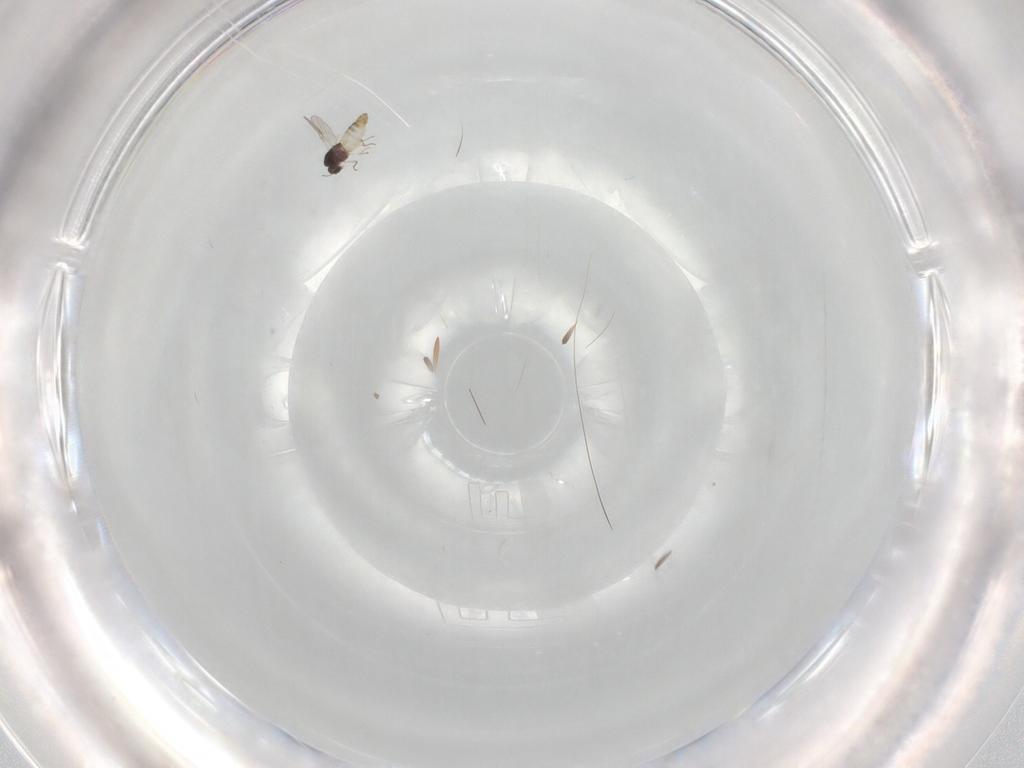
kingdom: Animalia
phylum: Arthropoda
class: Insecta
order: Diptera
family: Chironomidae
